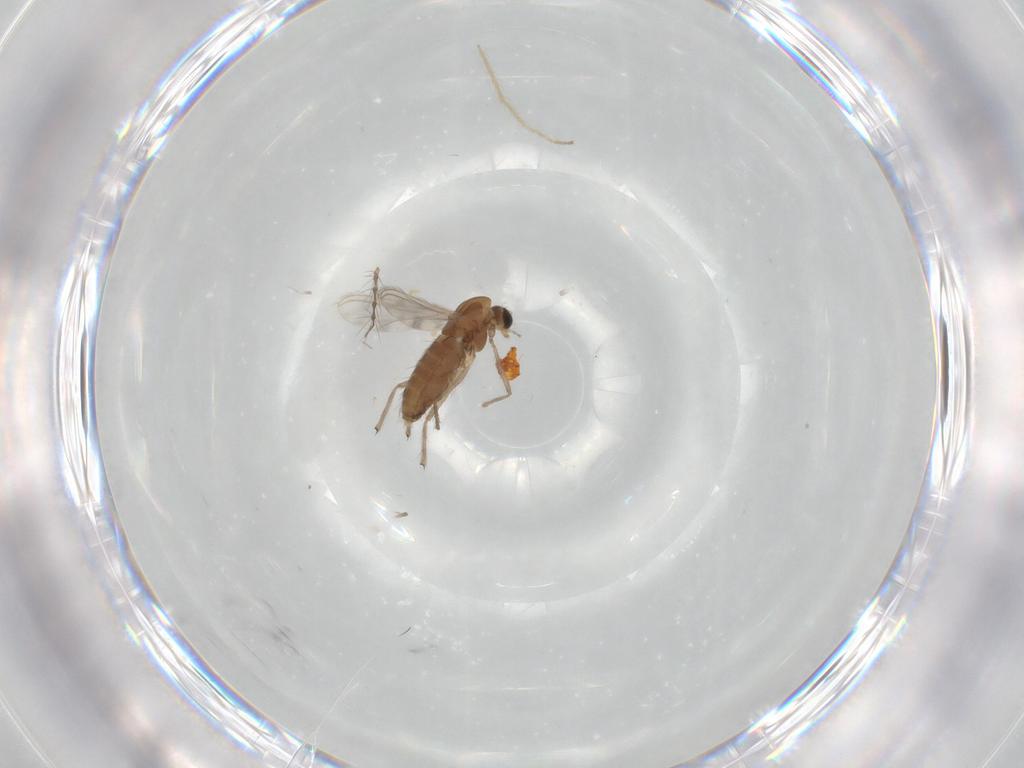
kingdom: Animalia
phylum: Arthropoda
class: Insecta
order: Diptera
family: Chironomidae
